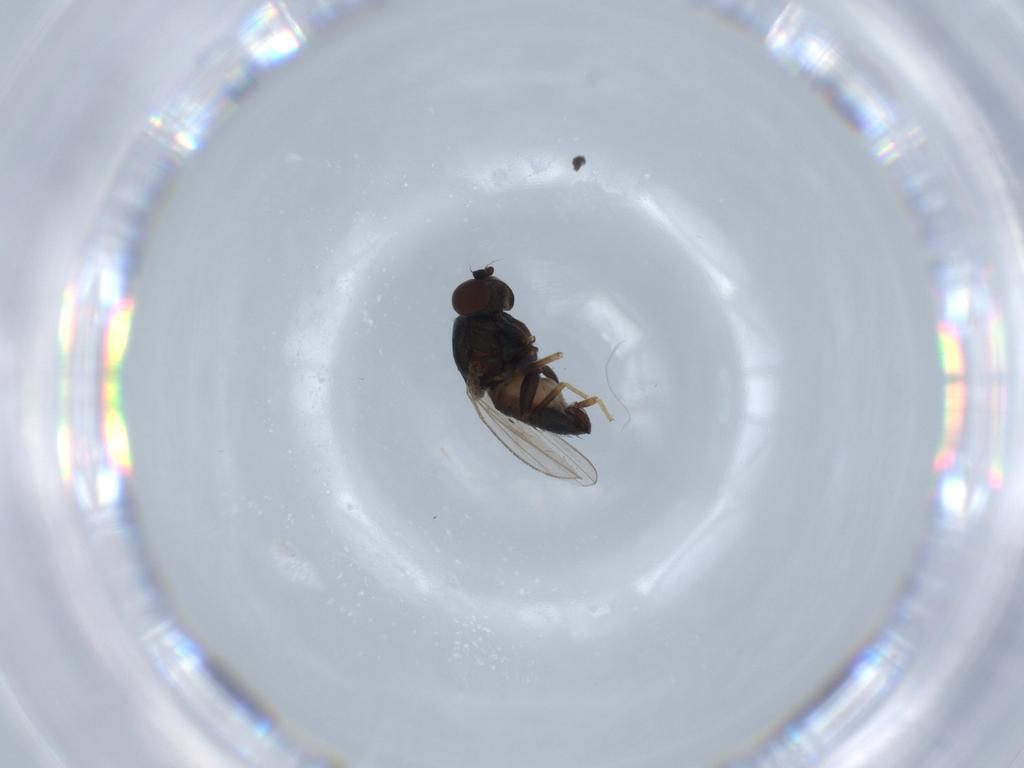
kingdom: Animalia
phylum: Arthropoda
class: Insecta
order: Diptera
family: Ephydridae
